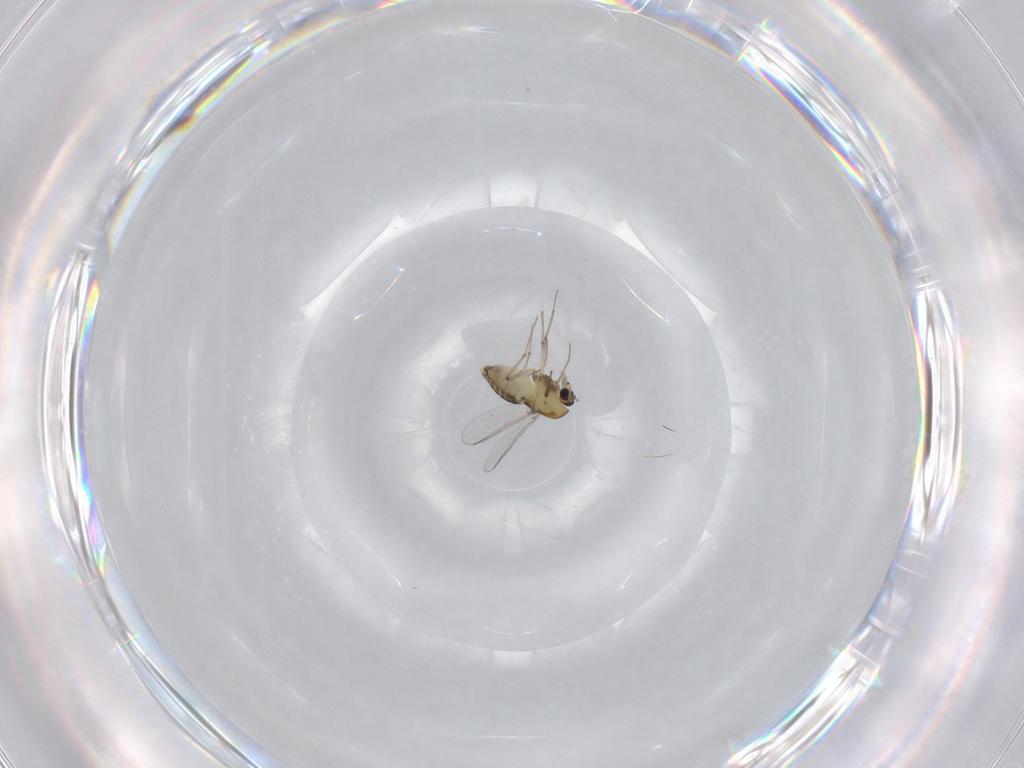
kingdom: Animalia
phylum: Arthropoda
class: Insecta
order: Diptera
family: Chironomidae
